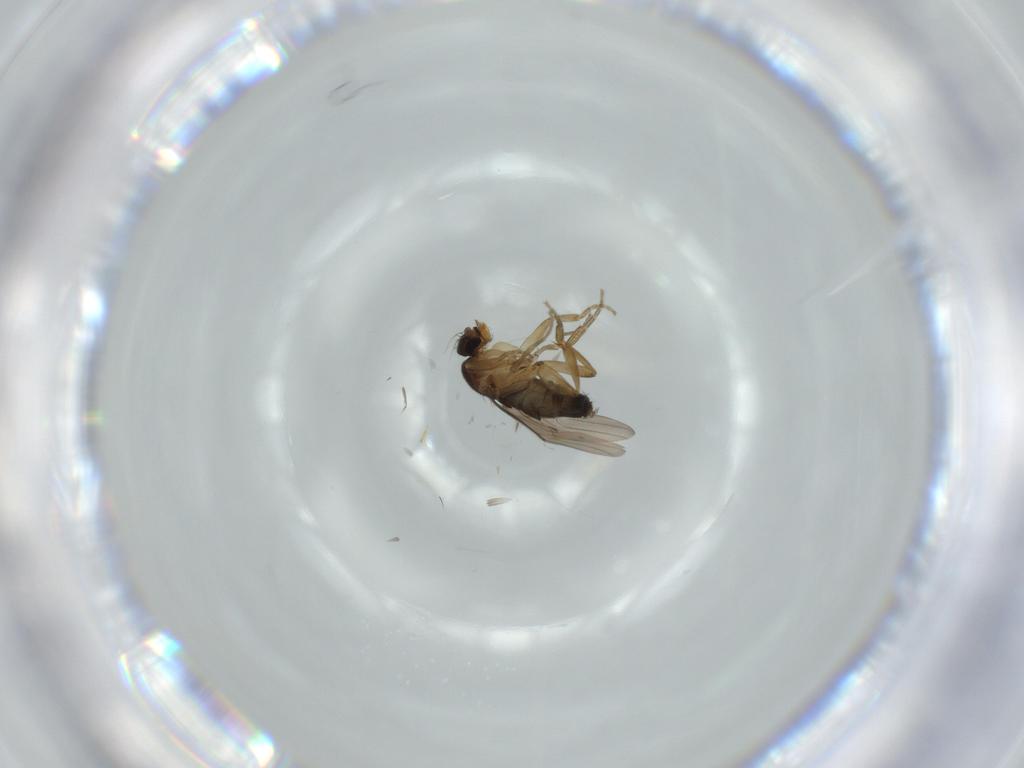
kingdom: Animalia
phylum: Arthropoda
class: Insecta
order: Diptera
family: Phoridae
